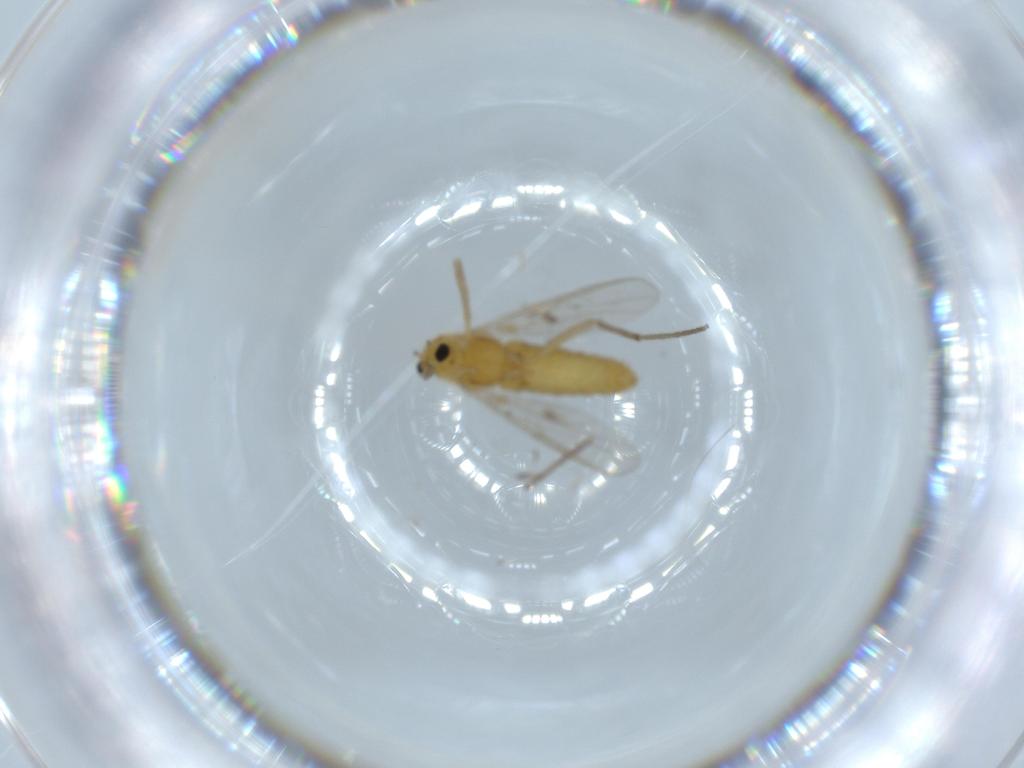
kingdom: Animalia
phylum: Arthropoda
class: Insecta
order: Diptera
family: Chironomidae
